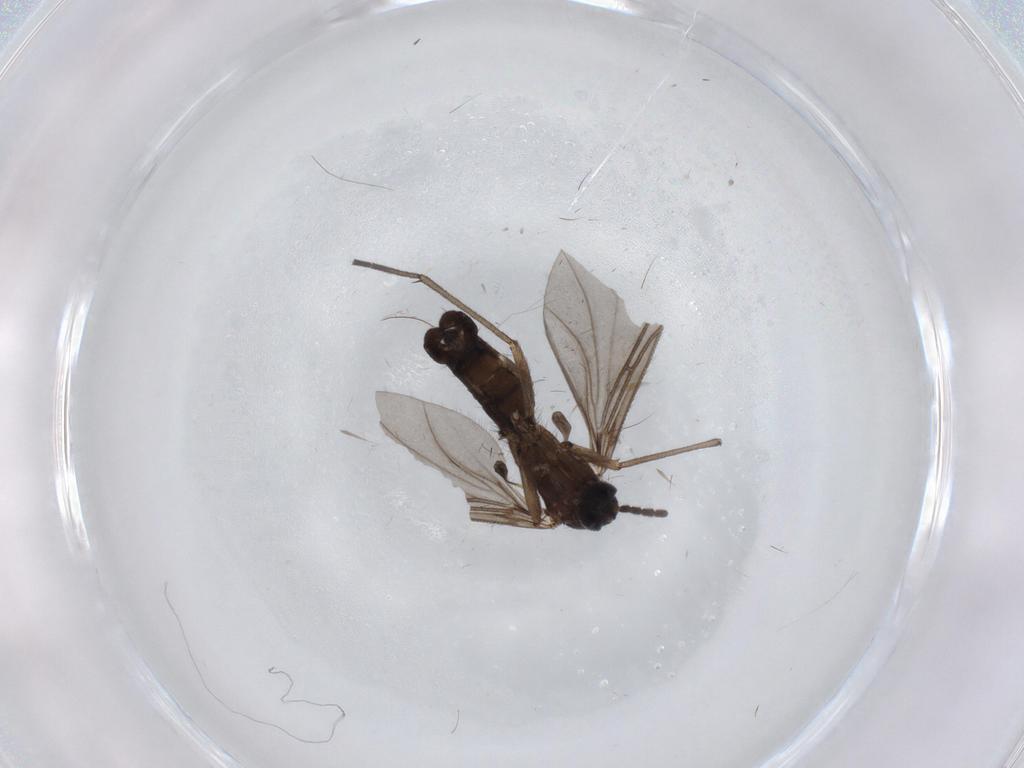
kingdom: Animalia
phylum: Arthropoda
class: Insecta
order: Diptera
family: Sciaridae
